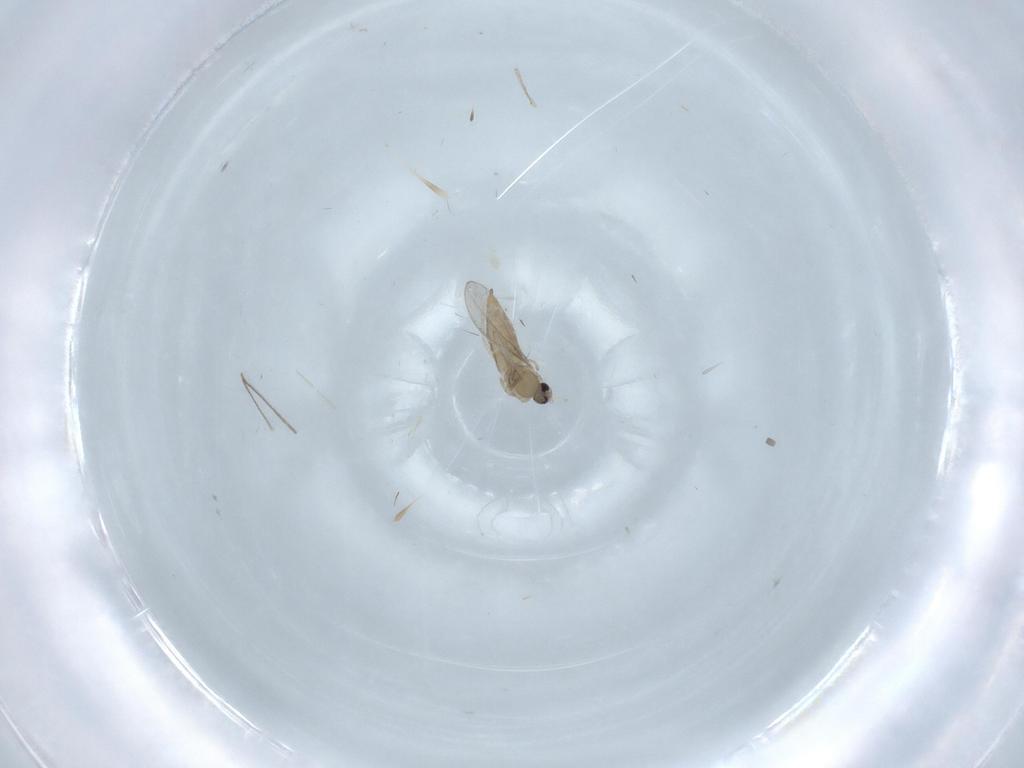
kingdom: Animalia
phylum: Arthropoda
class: Insecta
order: Diptera
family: Cecidomyiidae
